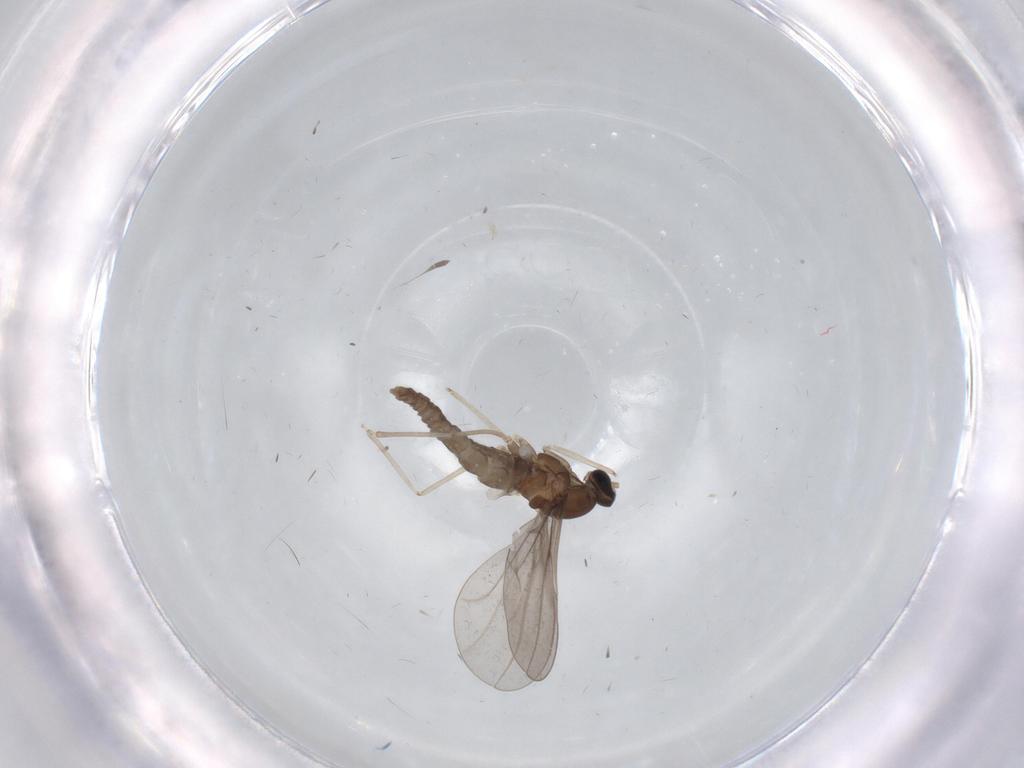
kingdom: Animalia
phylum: Arthropoda
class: Insecta
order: Diptera
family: Cecidomyiidae
